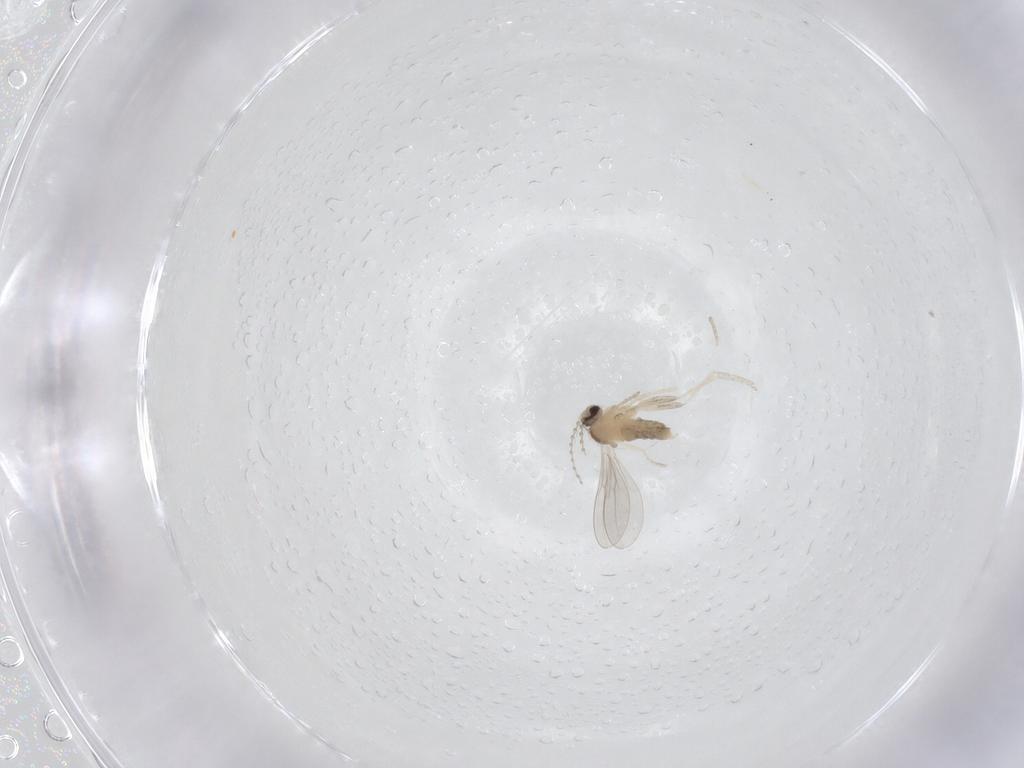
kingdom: Animalia
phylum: Arthropoda
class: Insecta
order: Diptera
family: Cecidomyiidae
